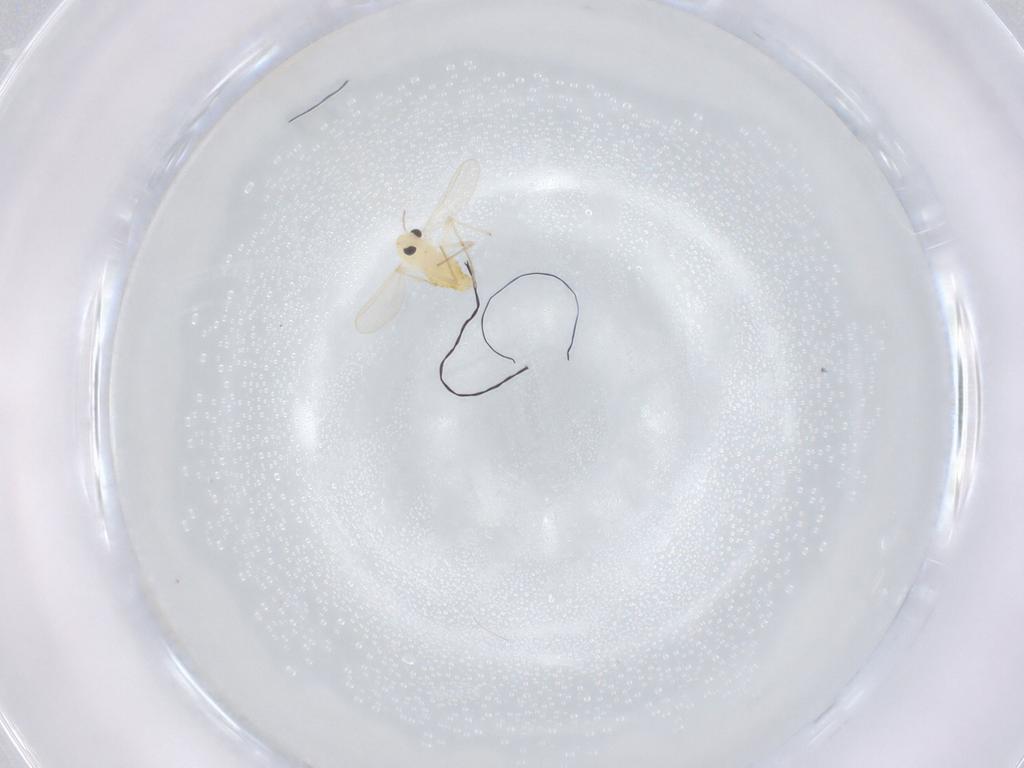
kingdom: Animalia
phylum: Arthropoda
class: Insecta
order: Diptera
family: Chironomidae
